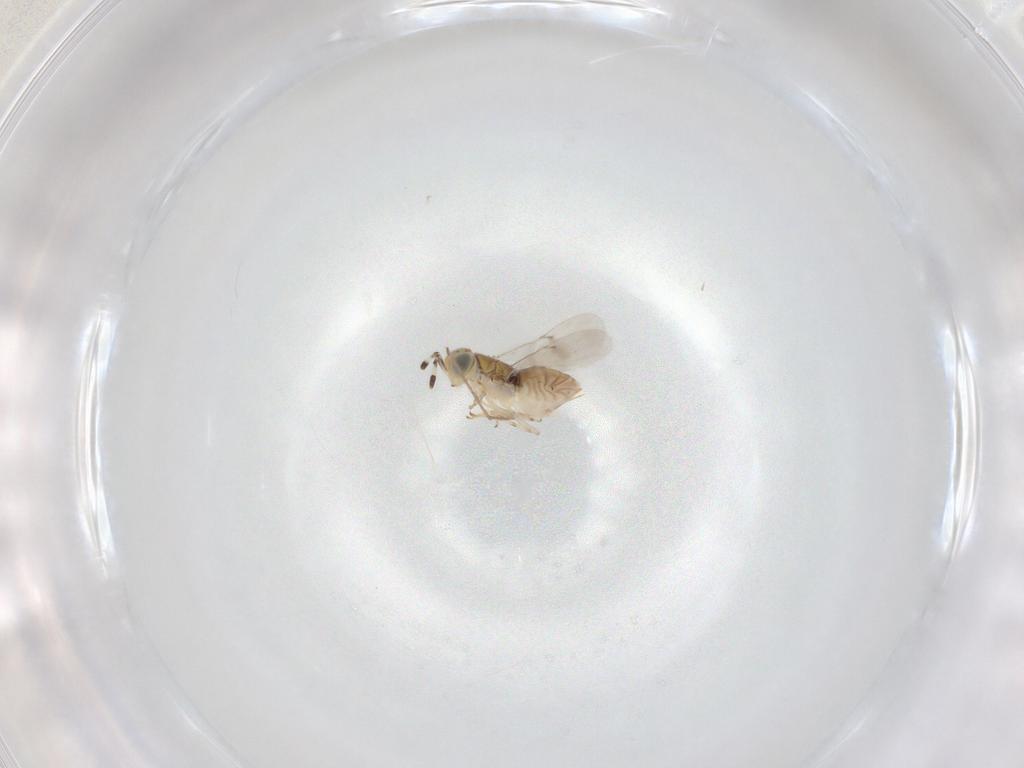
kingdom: Animalia
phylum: Arthropoda
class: Insecta
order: Hymenoptera
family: Encyrtidae
